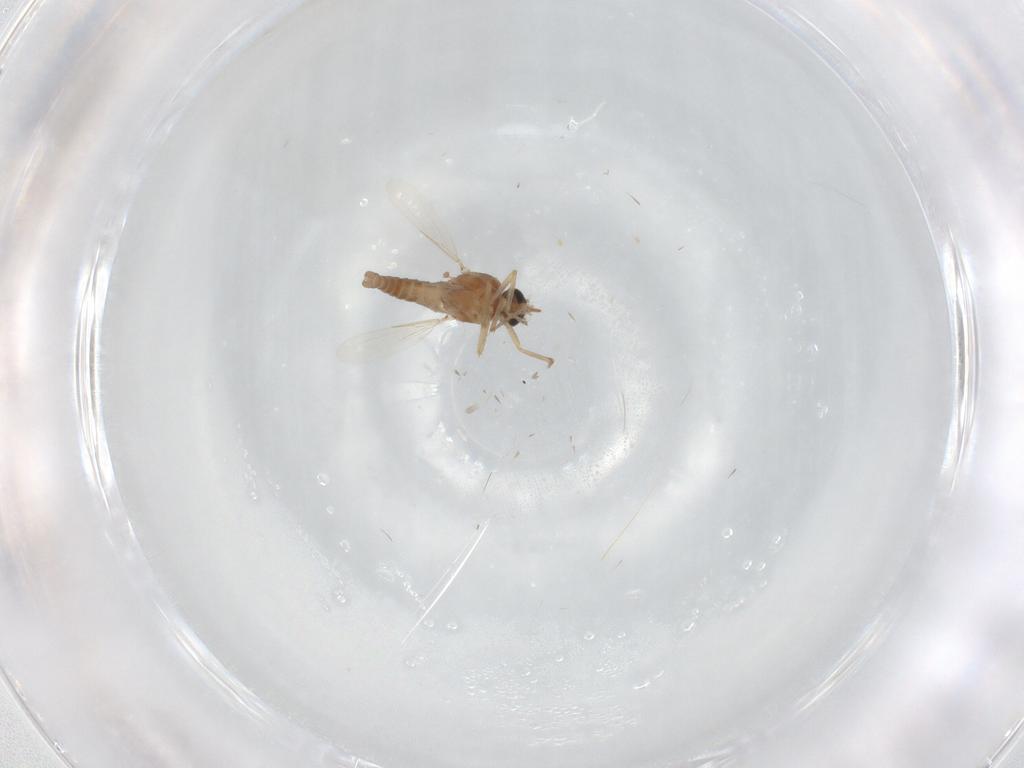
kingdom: Animalia
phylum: Arthropoda
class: Insecta
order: Diptera
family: Ceratopogonidae
